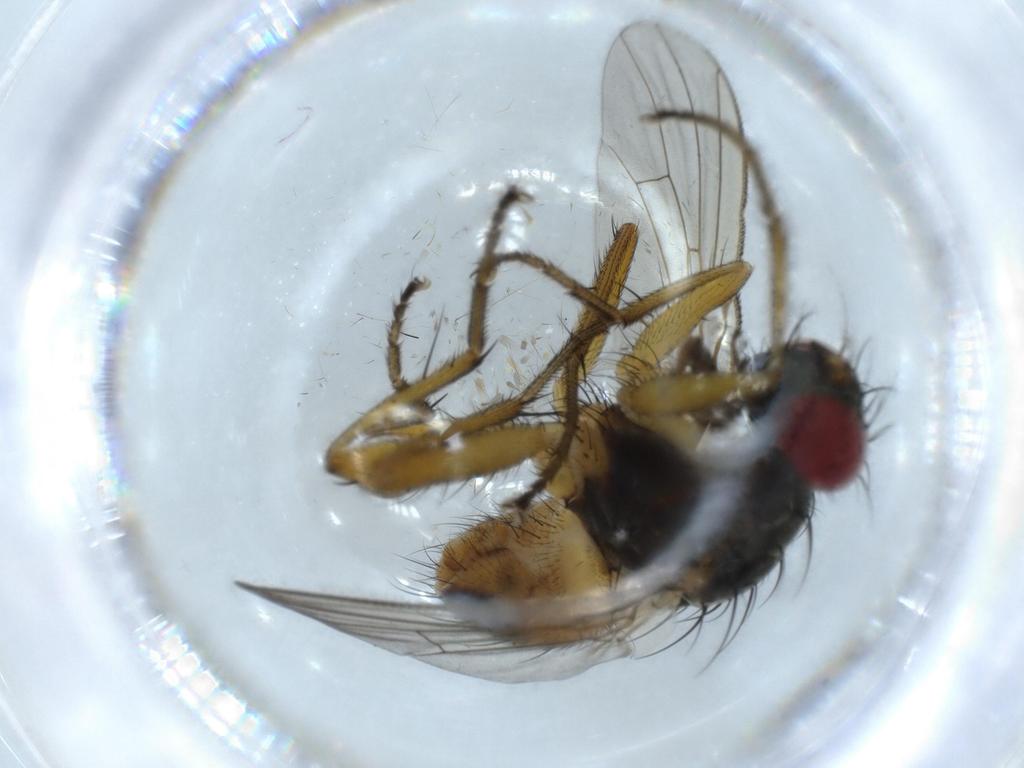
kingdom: Animalia
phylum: Arthropoda
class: Insecta
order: Diptera
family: Muscidae
